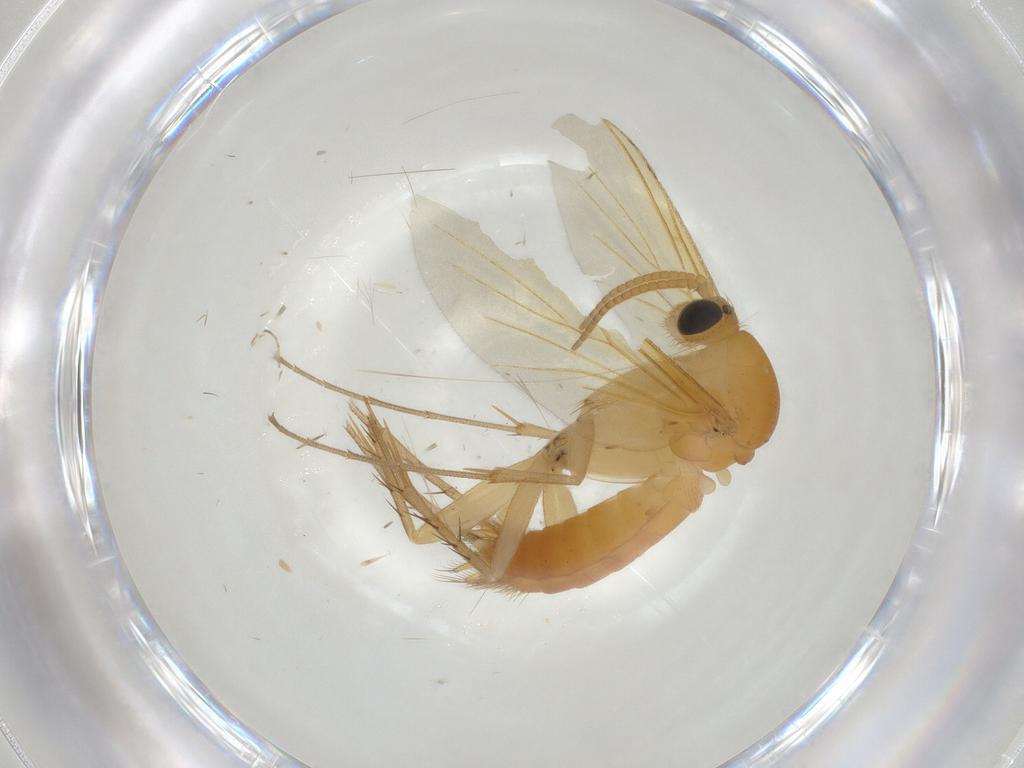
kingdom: Animalia
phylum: Arthropoda
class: Insecta
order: Diptera
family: Mycetophilidae
